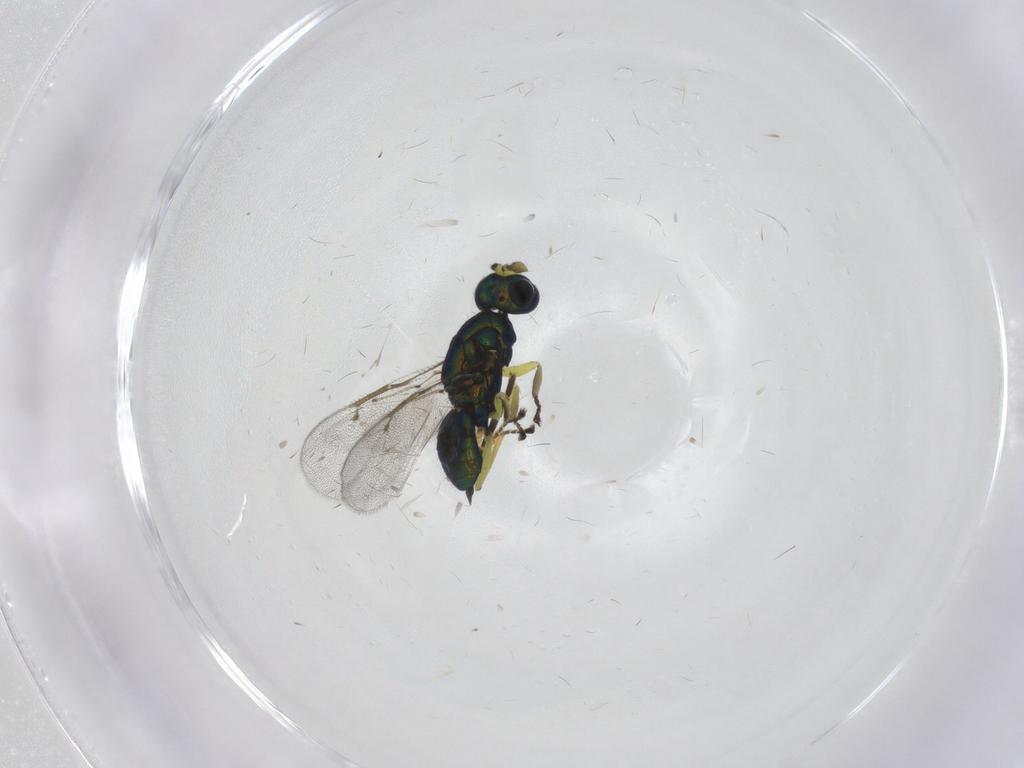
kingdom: Animalia
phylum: Arthropoda
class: Insecta
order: Hymenoptera
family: Eulophidae
